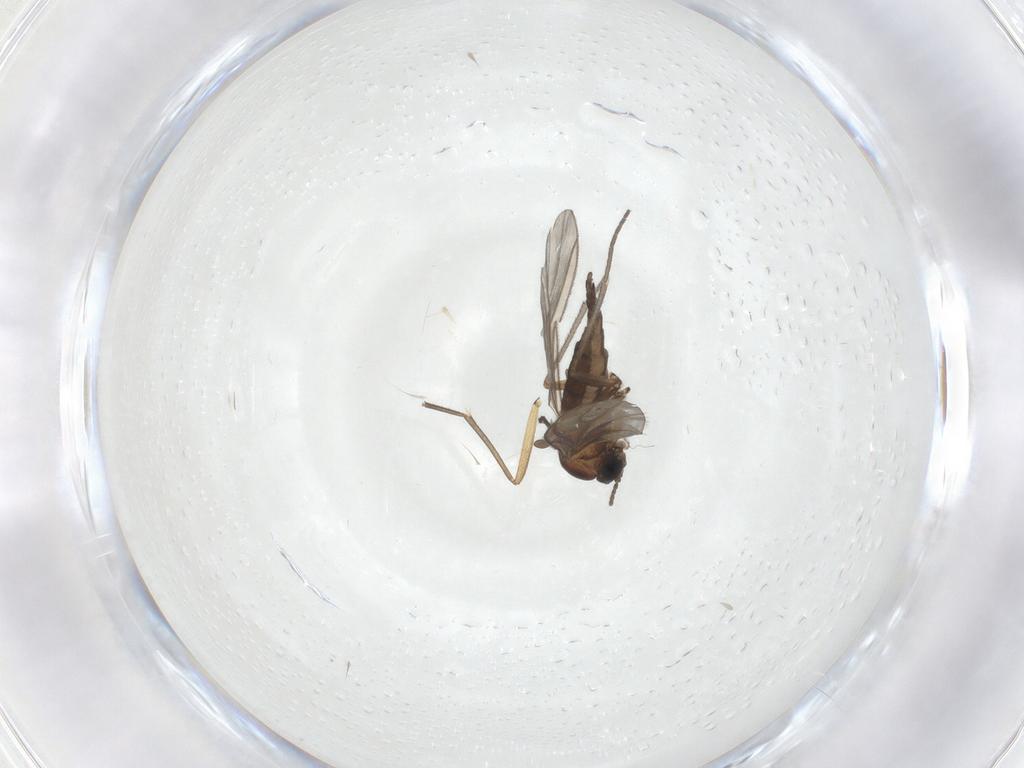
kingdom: Animalia
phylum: Arthropoda
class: Insecta
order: Diptera
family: Sciaridae
